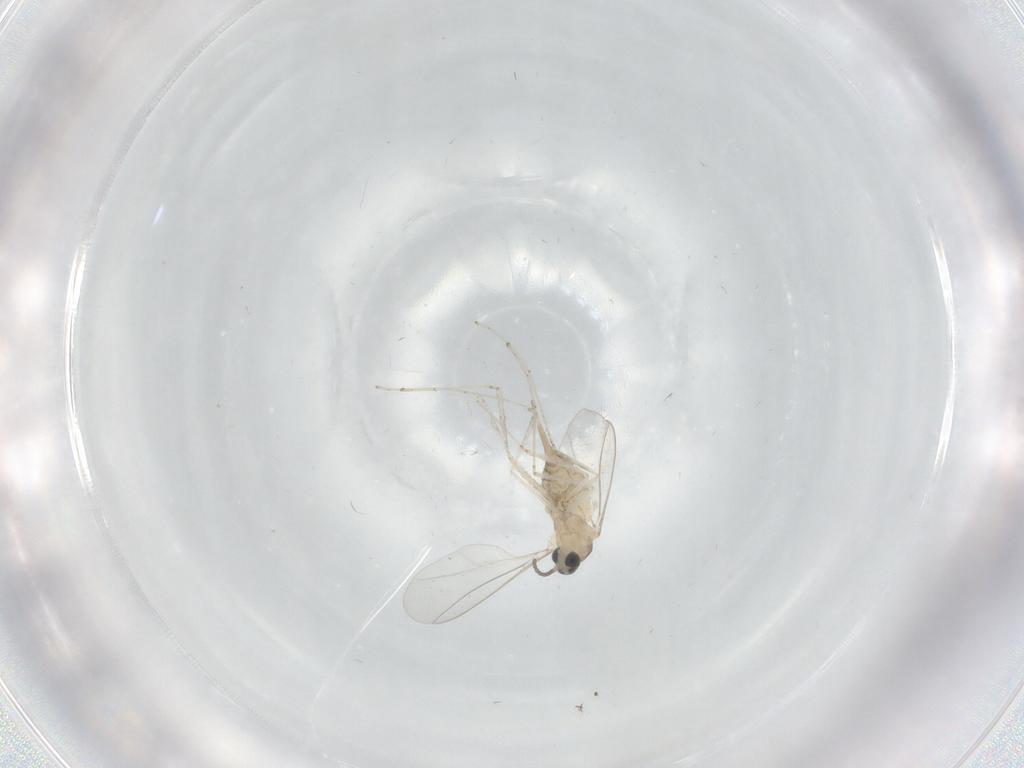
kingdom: Animalia
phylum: Arthropoda
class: Insecta
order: Diptera
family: Cecidomyiidae
